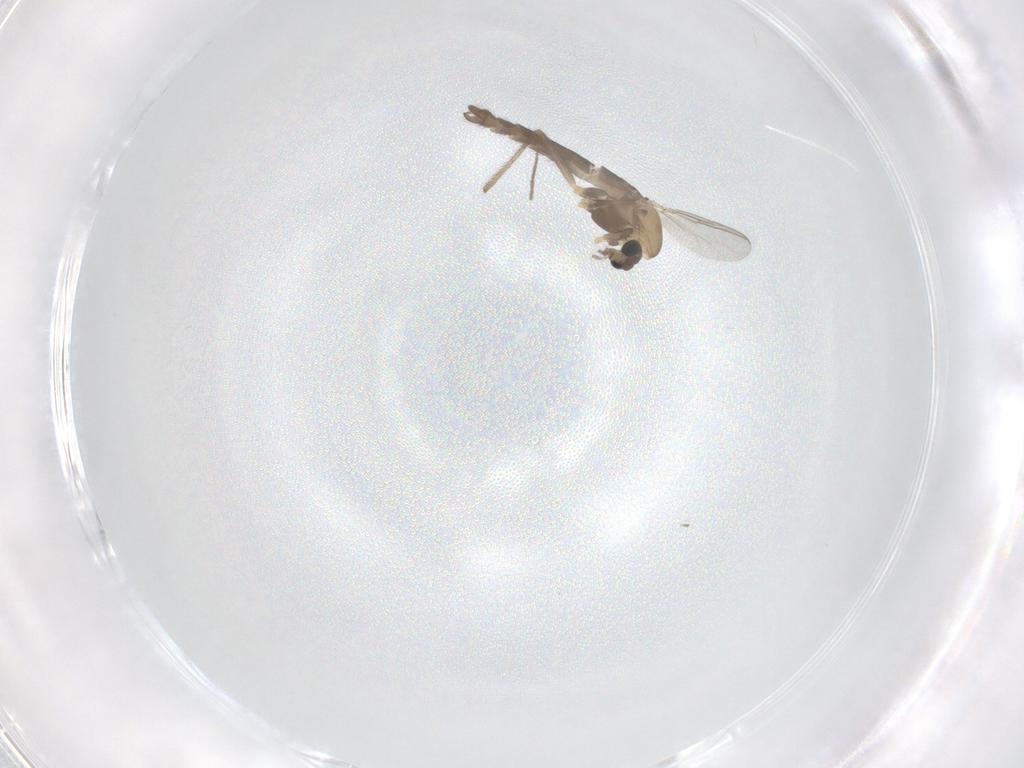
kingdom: Animalia
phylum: Arthropoda
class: Insecta
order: Diptera
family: Chironomidae
